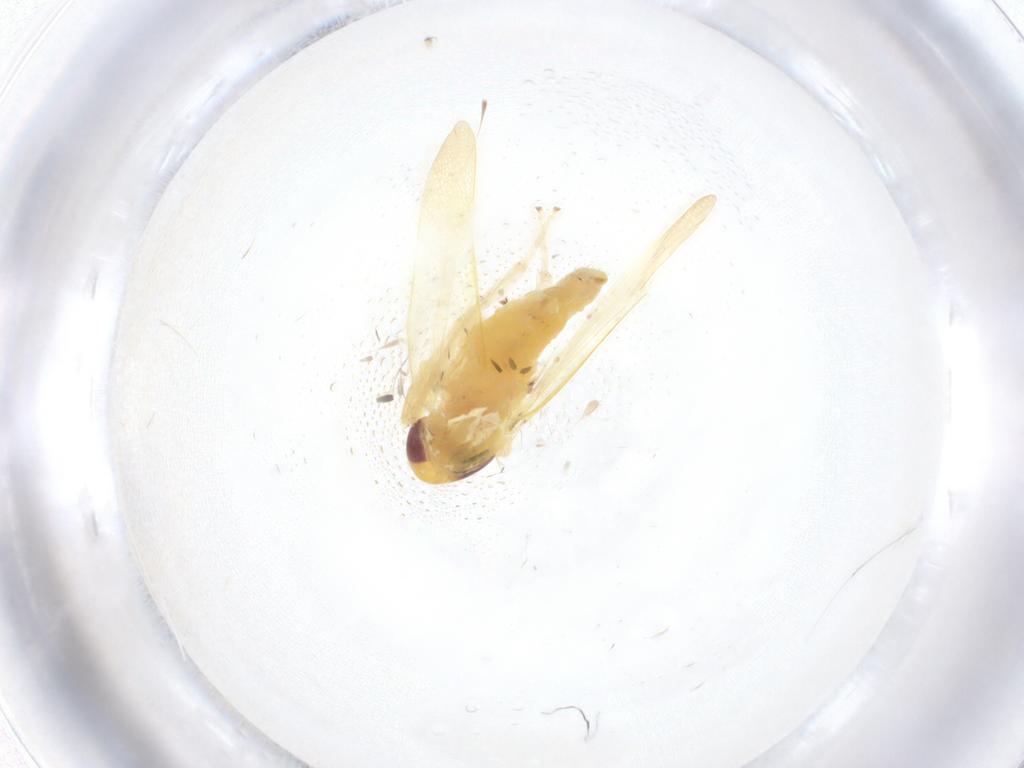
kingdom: Animalia
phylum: Arthropoda
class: Insecta
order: Hemiptera
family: Cicadellidae
